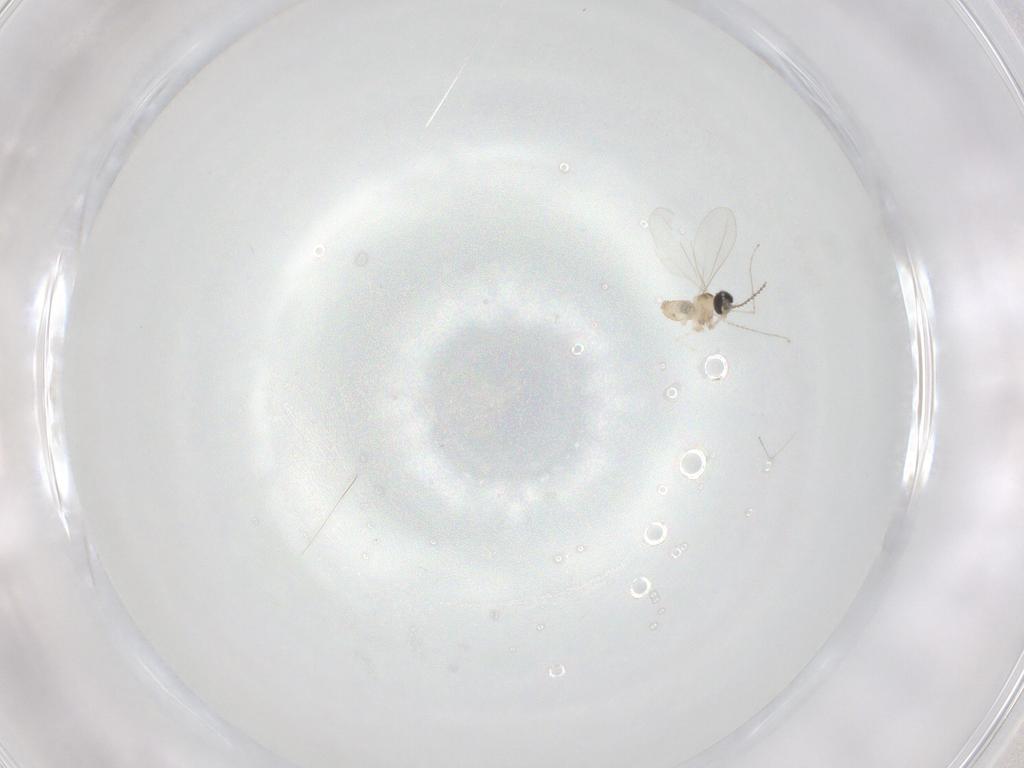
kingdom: Animalia
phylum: Arthropoda
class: Insecta
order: Diptera
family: Cecidomyiidae
